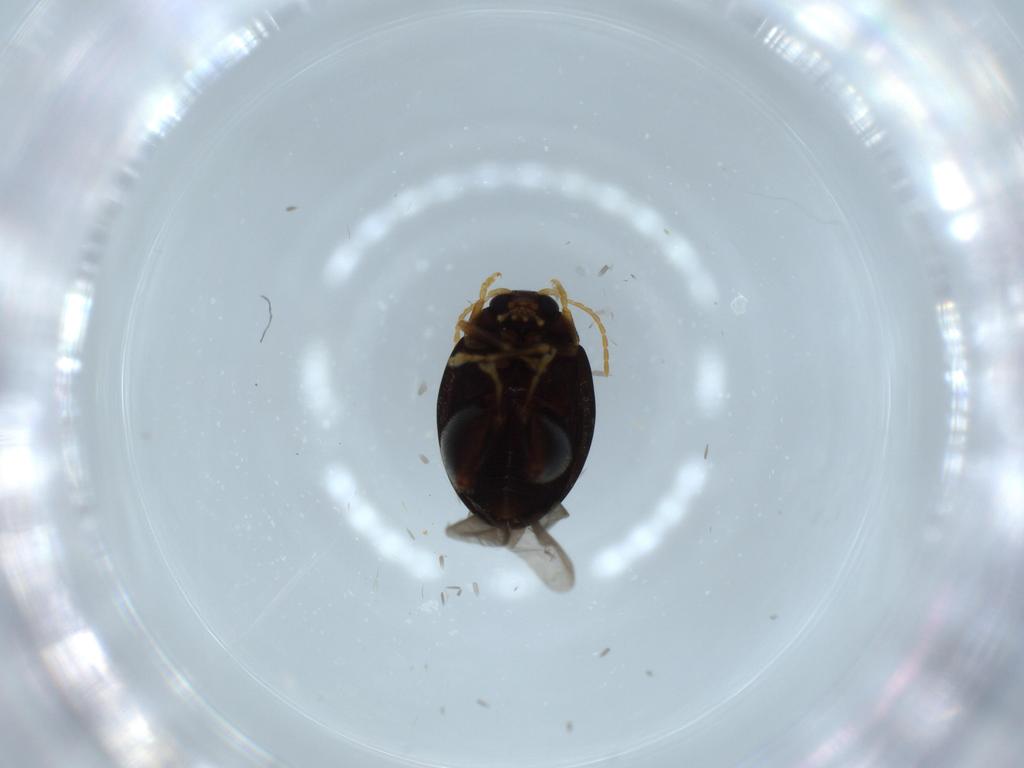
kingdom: Animalia
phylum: Arthropoda
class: Insecta
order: Coleoptera
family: Chrysomelidae
